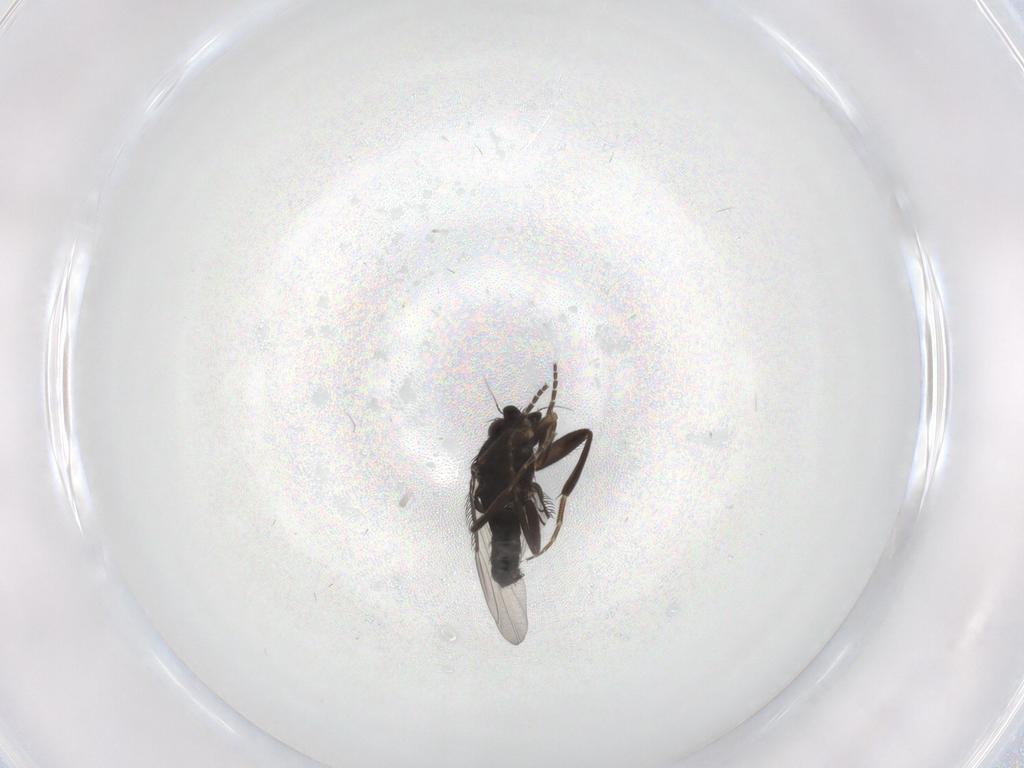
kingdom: Animalia
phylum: Arthropoda
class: Insecta
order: Diptera
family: Phoridae
